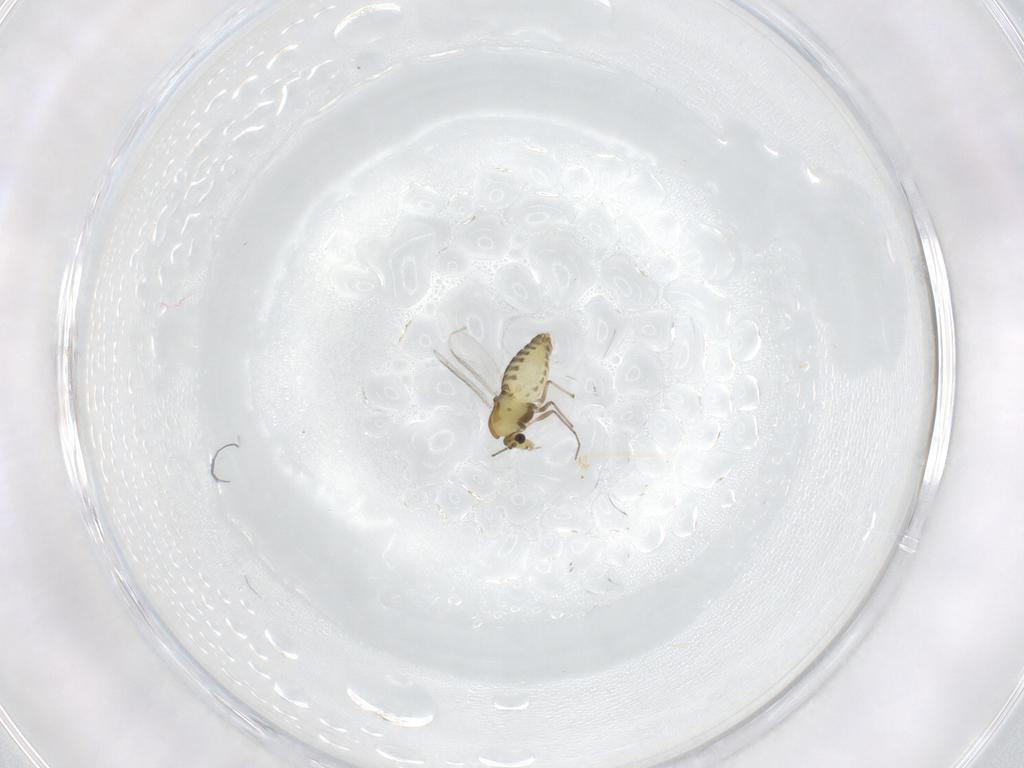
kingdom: Animalia
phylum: Arthropoda
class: Insecta
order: Diptera
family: Chironomidae
